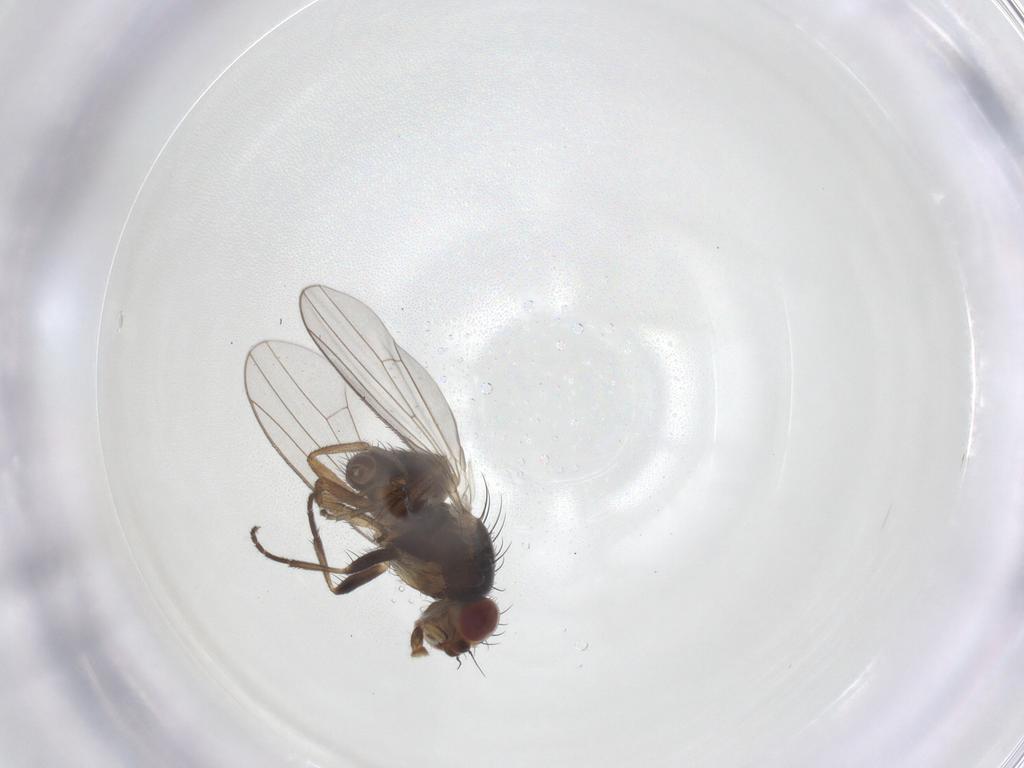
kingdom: Animalia
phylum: Arthropoda
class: Insecta
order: Diptera
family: Heleomyzidae
